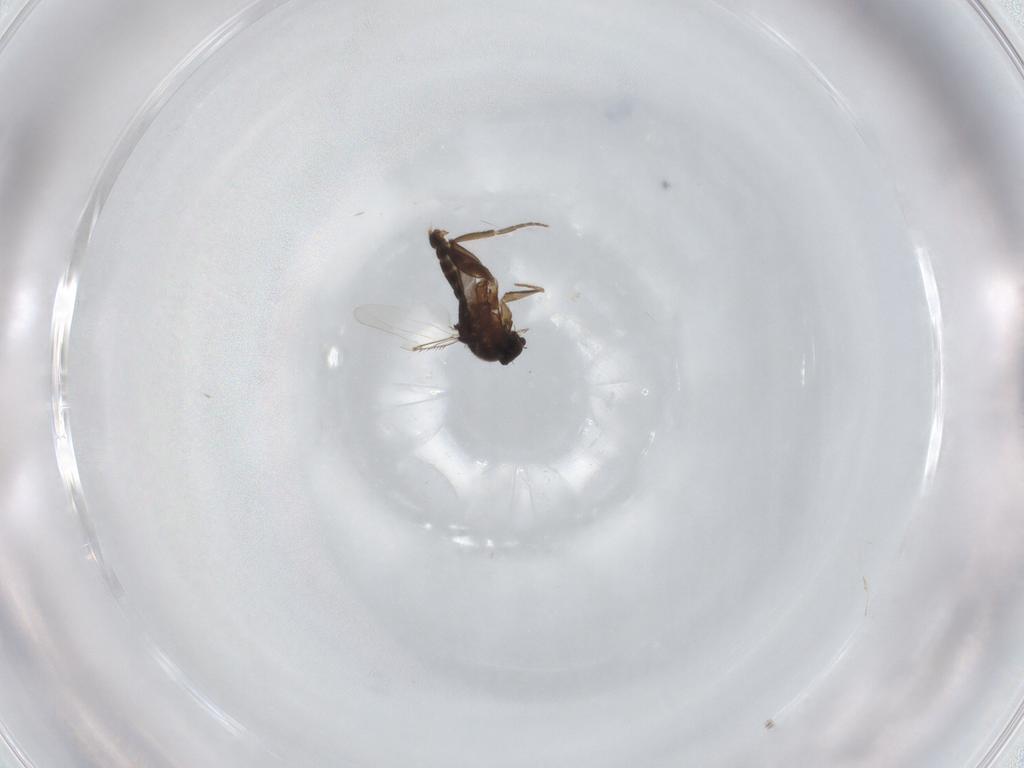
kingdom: Animalia
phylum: Arthropoda
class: Insecta
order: Diptera
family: Phoridae
